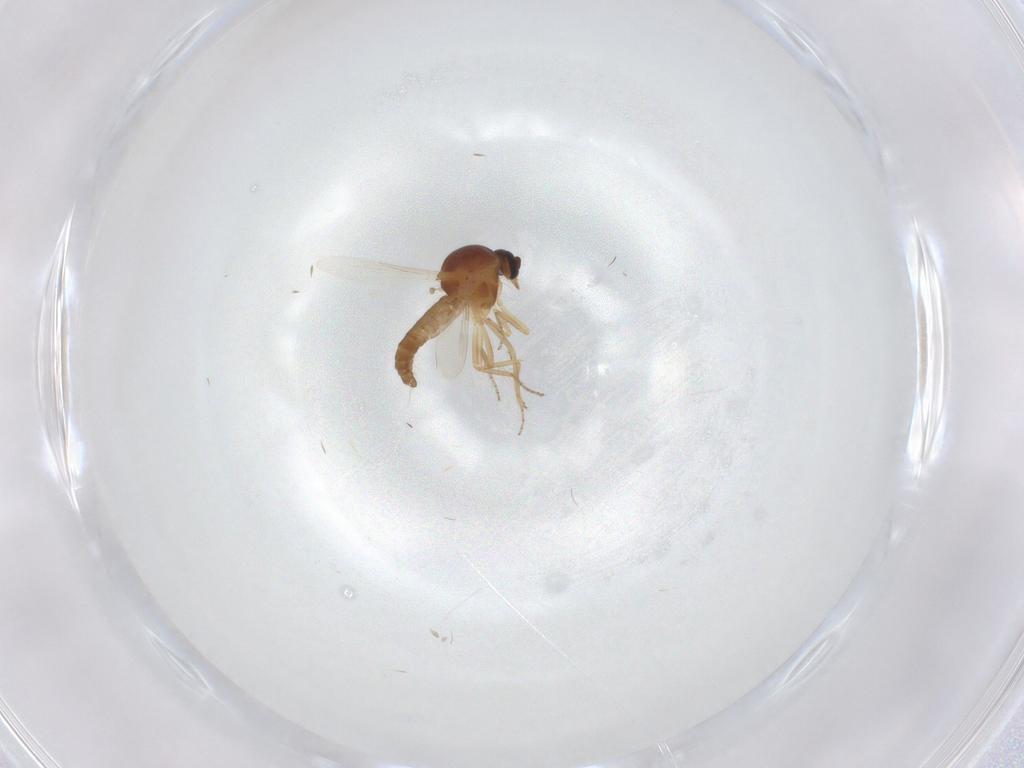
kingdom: Animalia
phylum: Arthropoda
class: Insecta
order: Diptera
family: Ceratopogonidae
